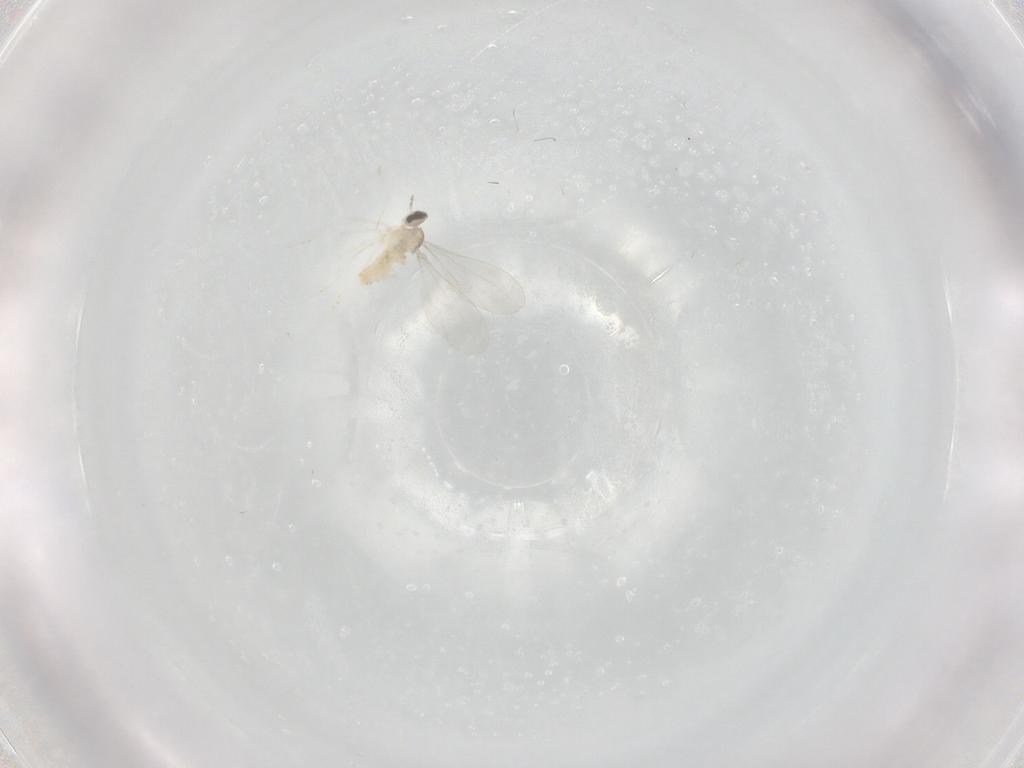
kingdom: Animalia
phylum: Arthropoda
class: Insecta
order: Diptera
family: Cecidomyiidae
